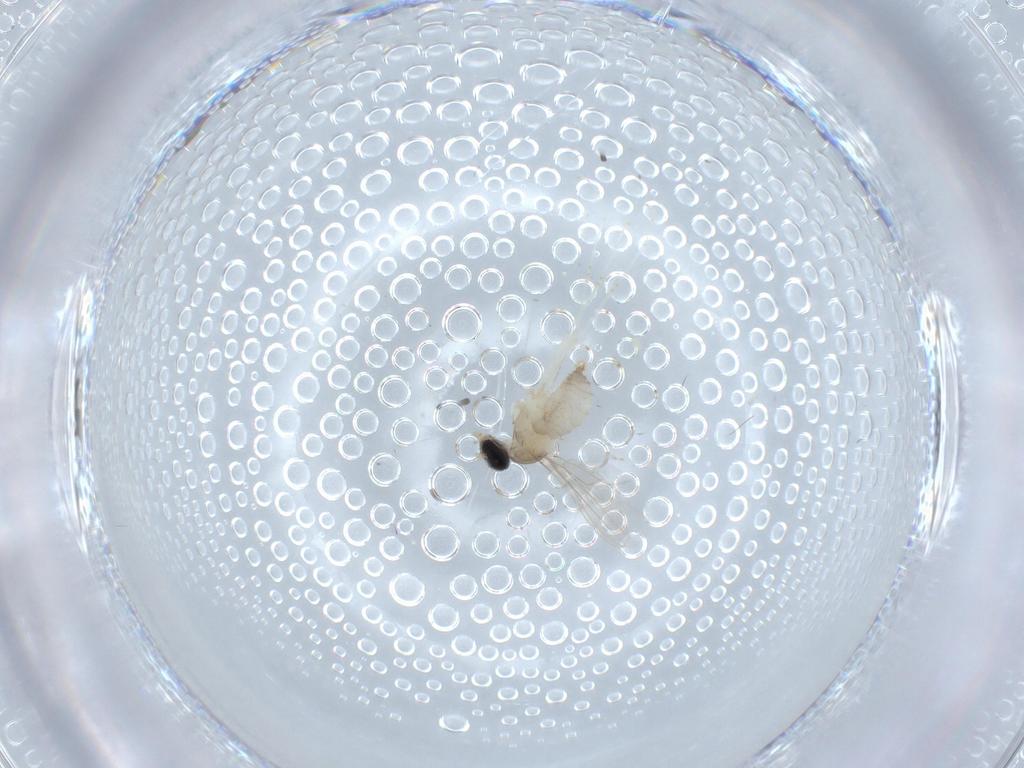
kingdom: Animalia
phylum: Arthropoda
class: Insecta
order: Diptera
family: Cecidomyiidae
